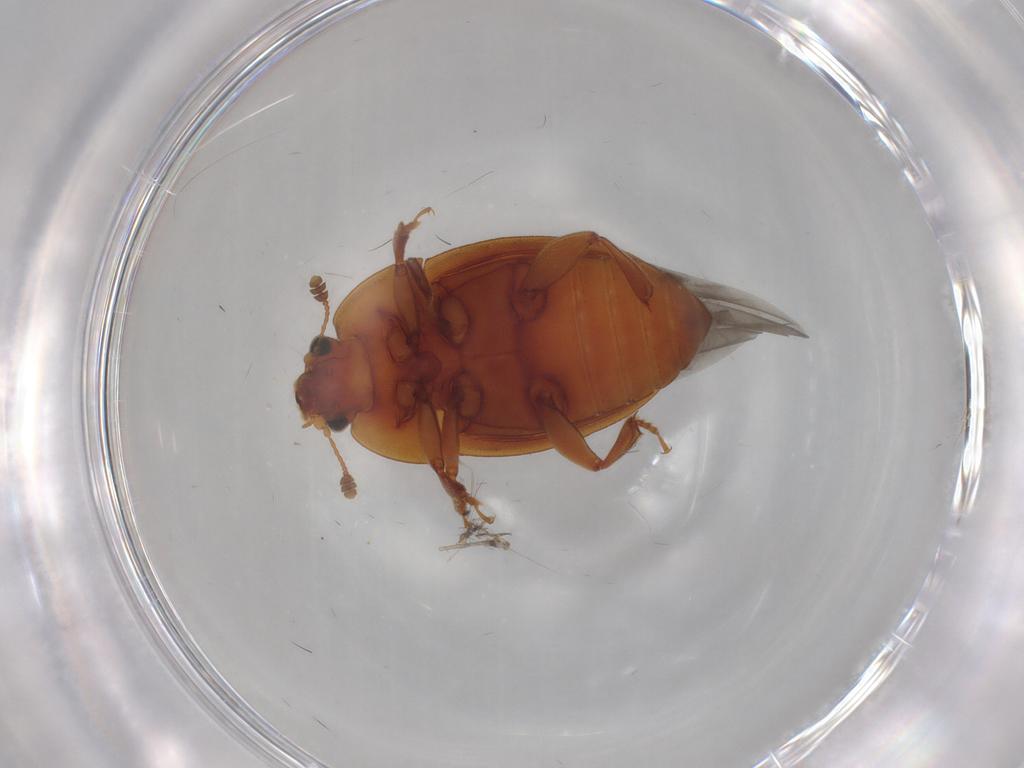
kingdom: Animalia
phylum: Arthropoda
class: Insecta
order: Coleoptera
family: Nitidulidae
